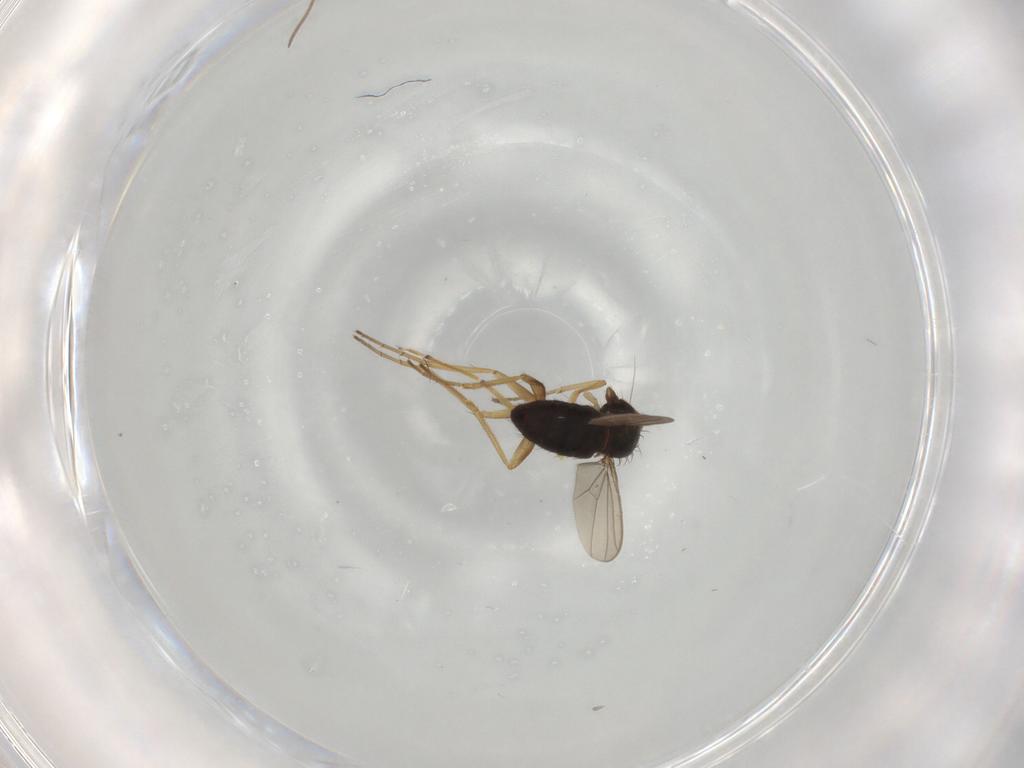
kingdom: Animalia
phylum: Arthropoda
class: Insecta
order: Diptera
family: Dolichopodidae
